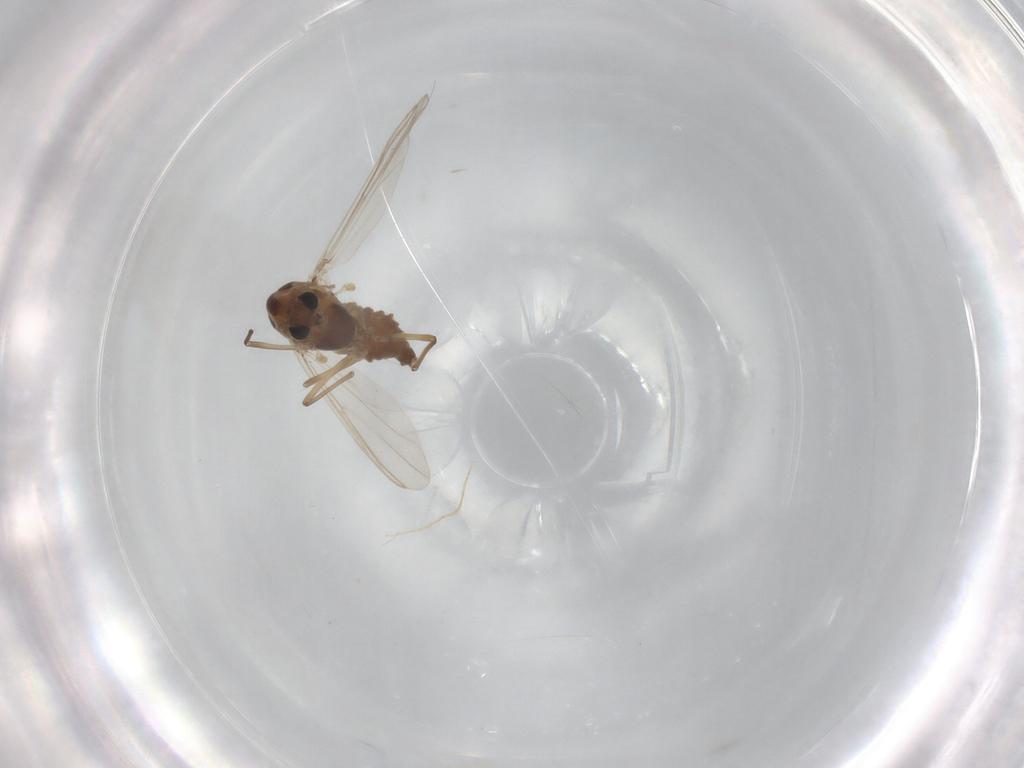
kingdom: Animalia
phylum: Arthropoda
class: Insecta
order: Diptera
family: Chironomidae
